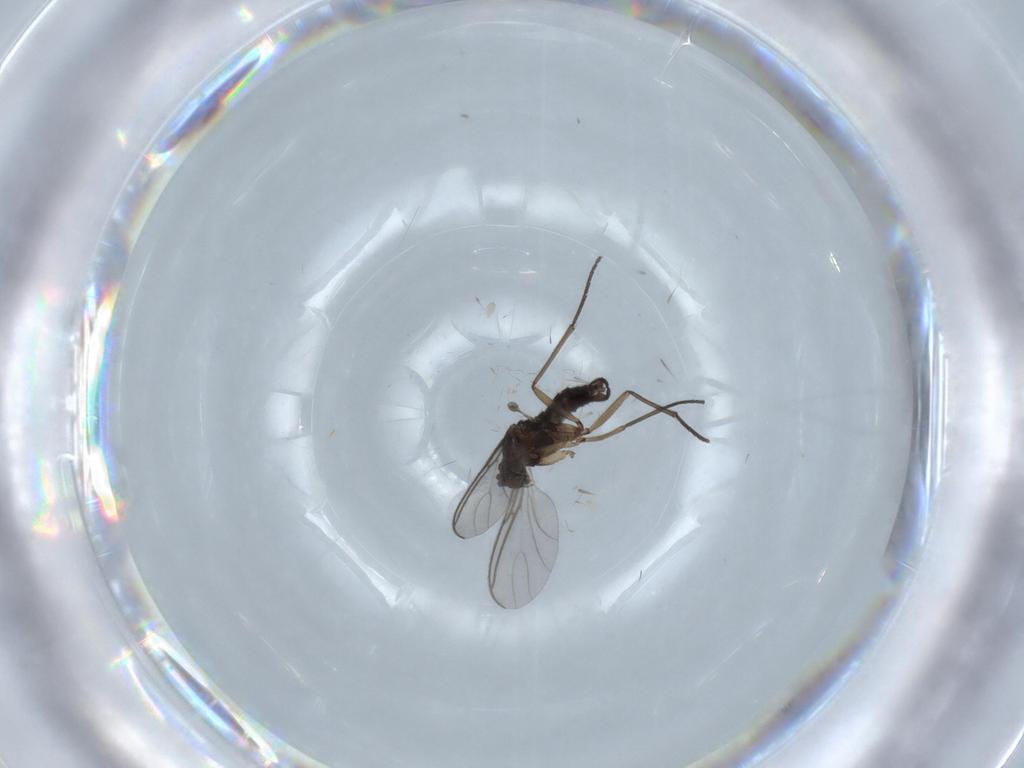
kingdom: Animalia
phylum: Arthropoda
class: Insecta
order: Diptera
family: Sciaridae
